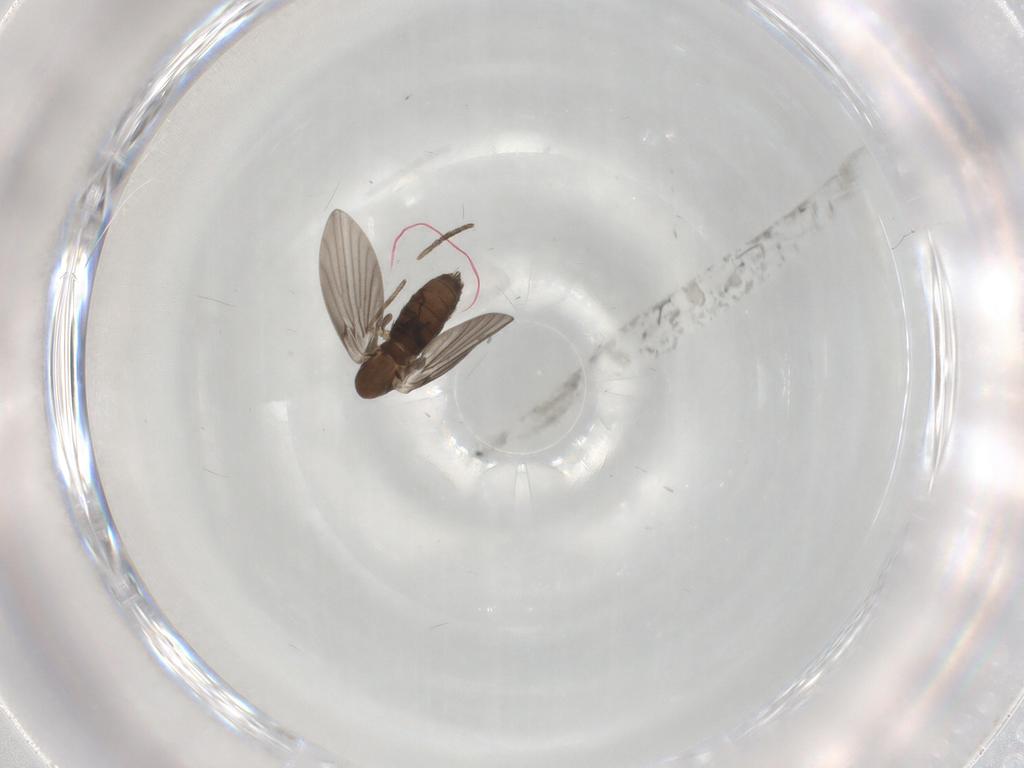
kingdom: Animalia
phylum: Arthropoda
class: Insecta
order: Diptera
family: Psychodidae
